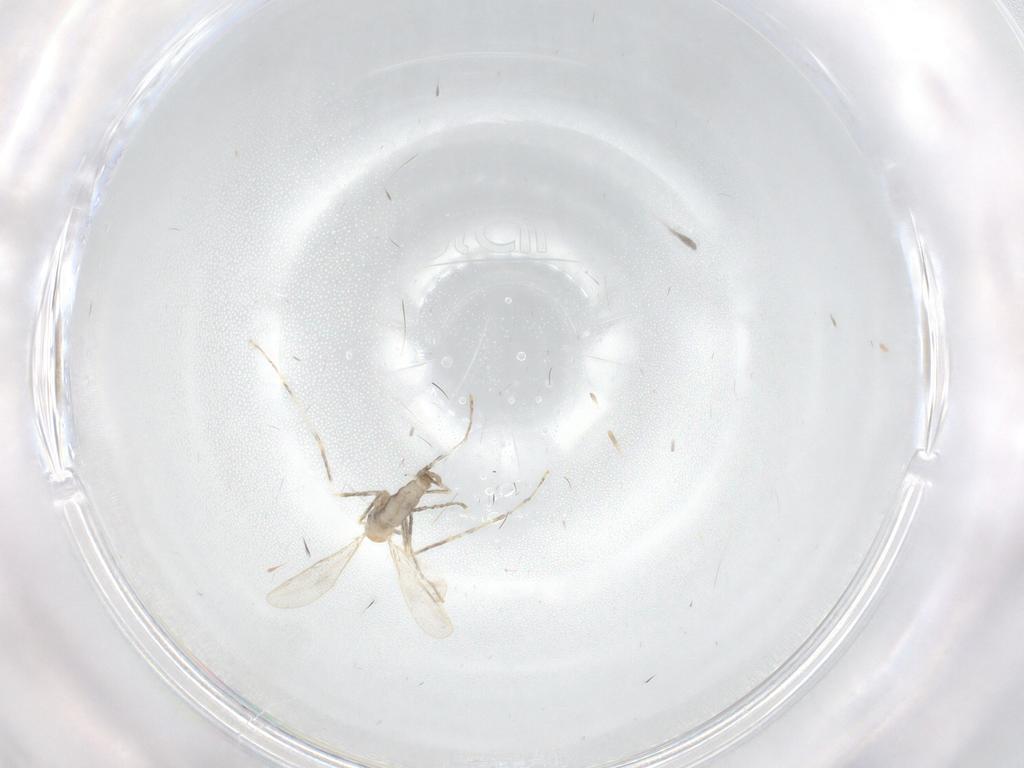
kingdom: Animalia
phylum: Arthropoda
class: Insecta
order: Diptera
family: Cecidomyiidae
